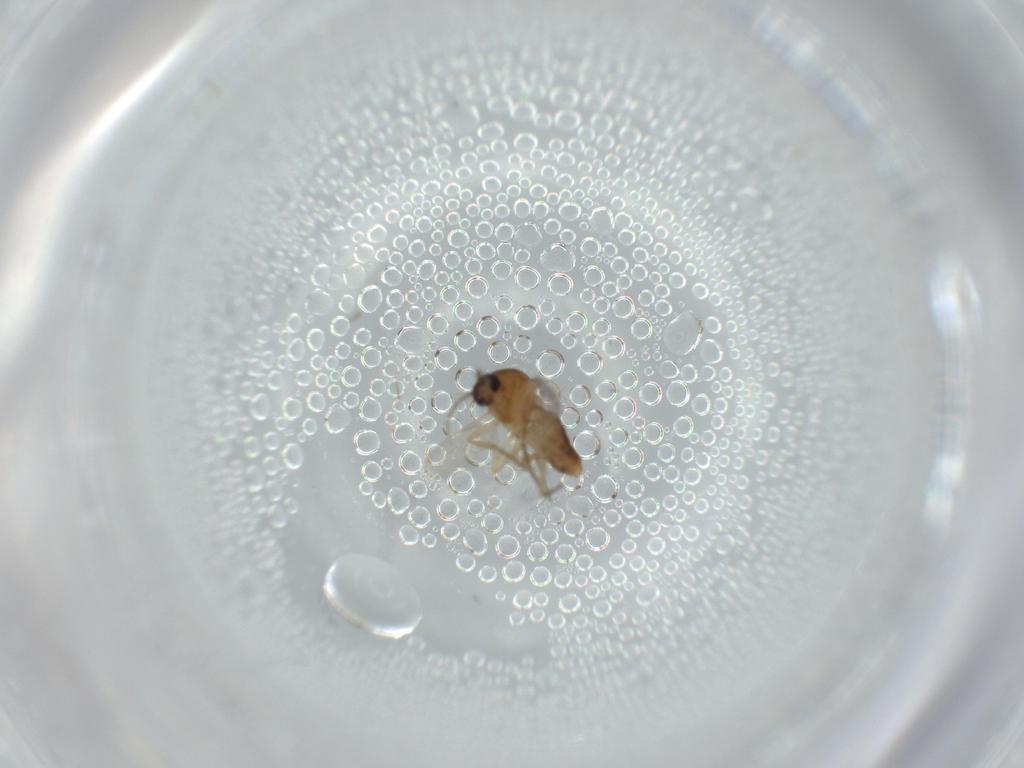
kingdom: Animalia
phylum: Arthropoda
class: Insecta
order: Diptera
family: Ceratopogonidae
